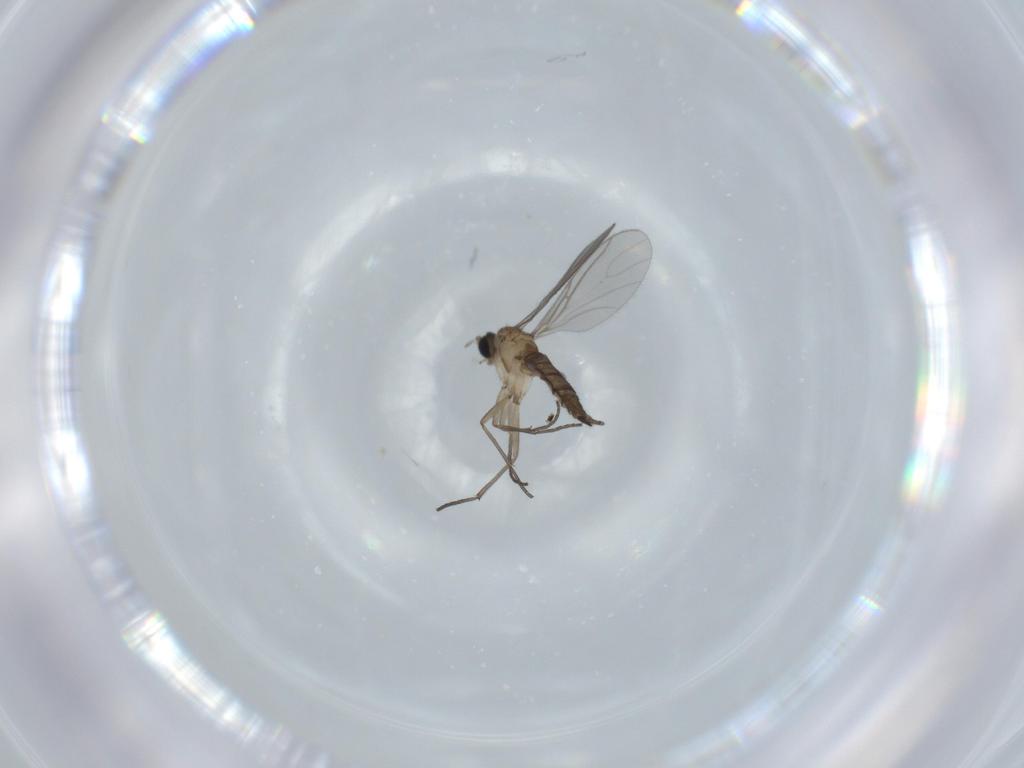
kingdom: Animalia
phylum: Arthropoda
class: Insecta
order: Diptera
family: Sciaridae
